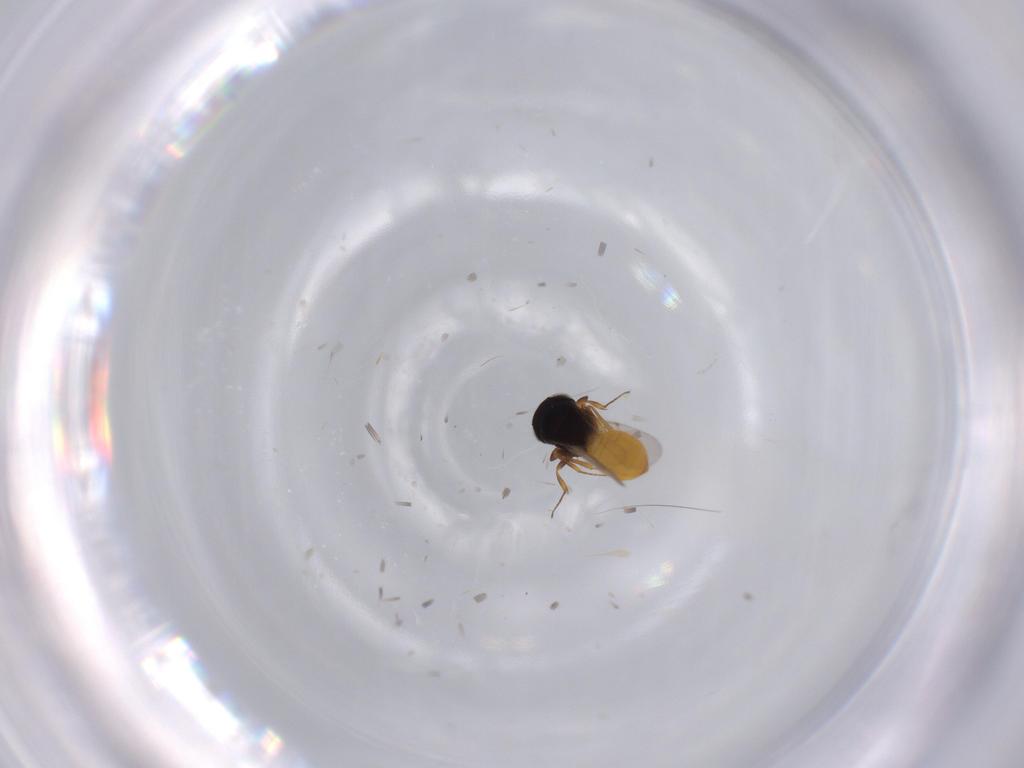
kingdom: Animalia
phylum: Arthropoda
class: Insecta
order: Hymenoptera
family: Scelionidae
